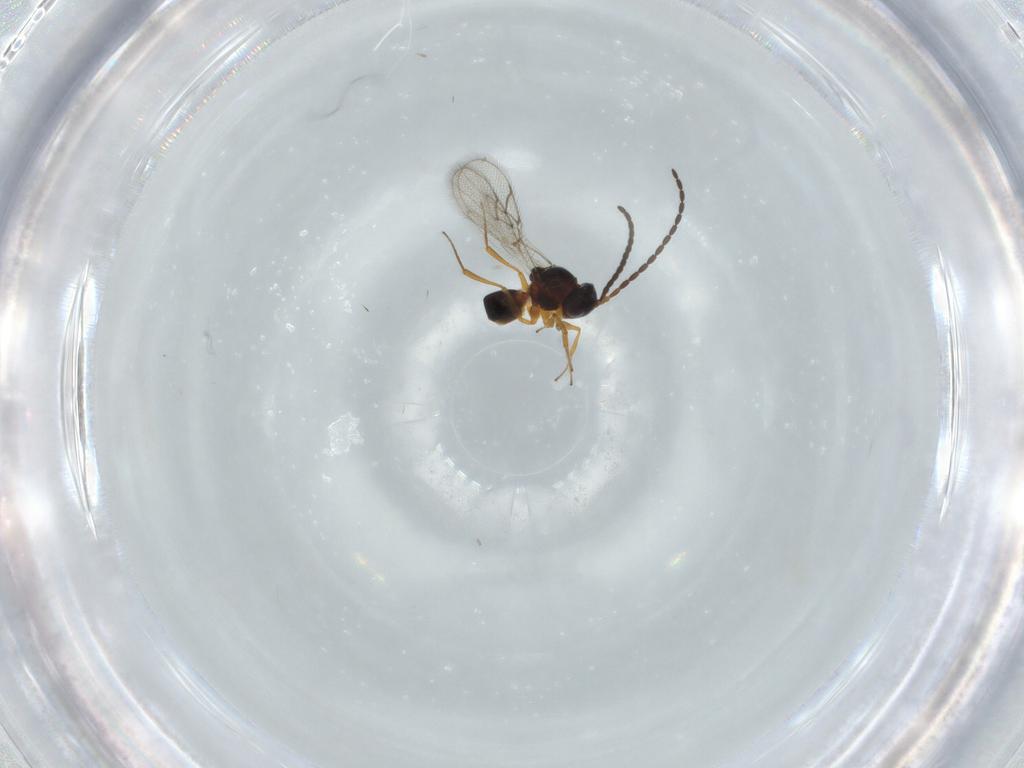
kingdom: Animalia
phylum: Arthropoda
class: Insecta
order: Hymenoptera
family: Figitidae
